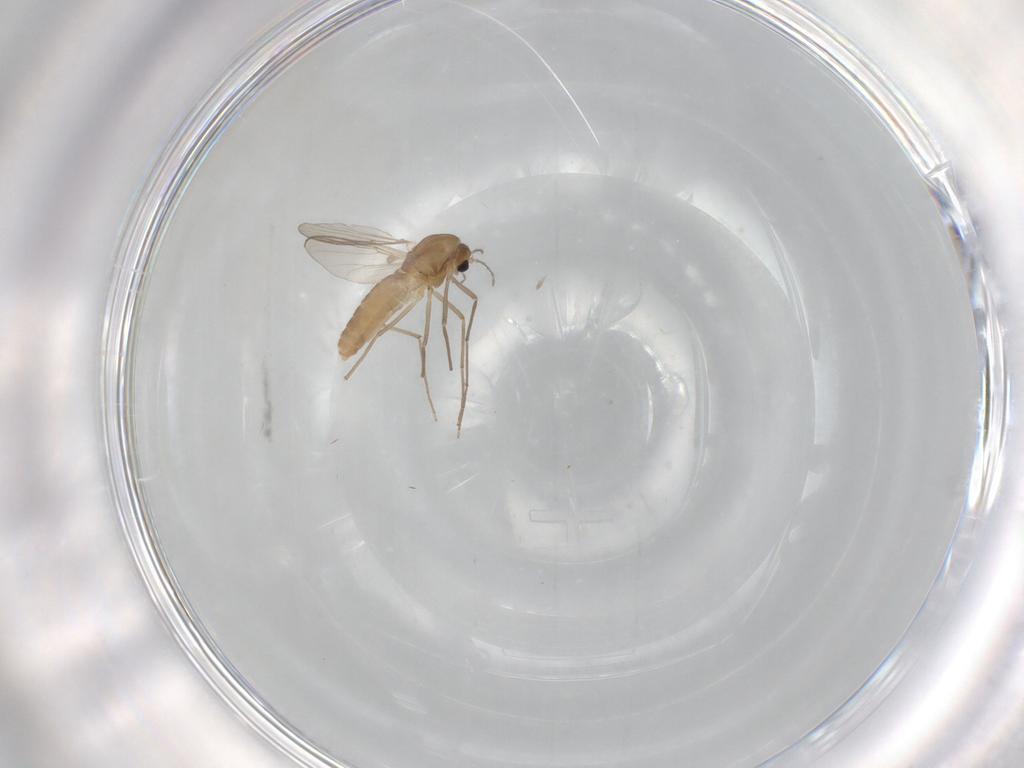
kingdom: Animalia
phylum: Arthropoda
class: Insecta
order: Diptera
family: Chironomidae
